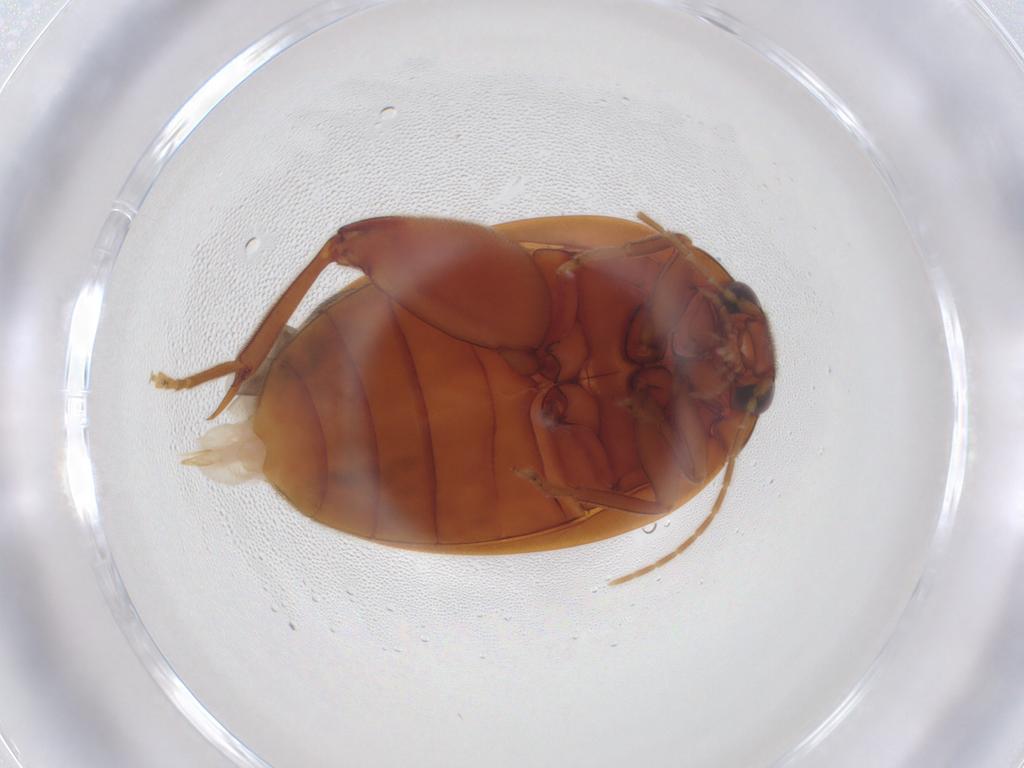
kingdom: Animalia
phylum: Arthropoda
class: Insecta
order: Coleoptera
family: Scirtidae
